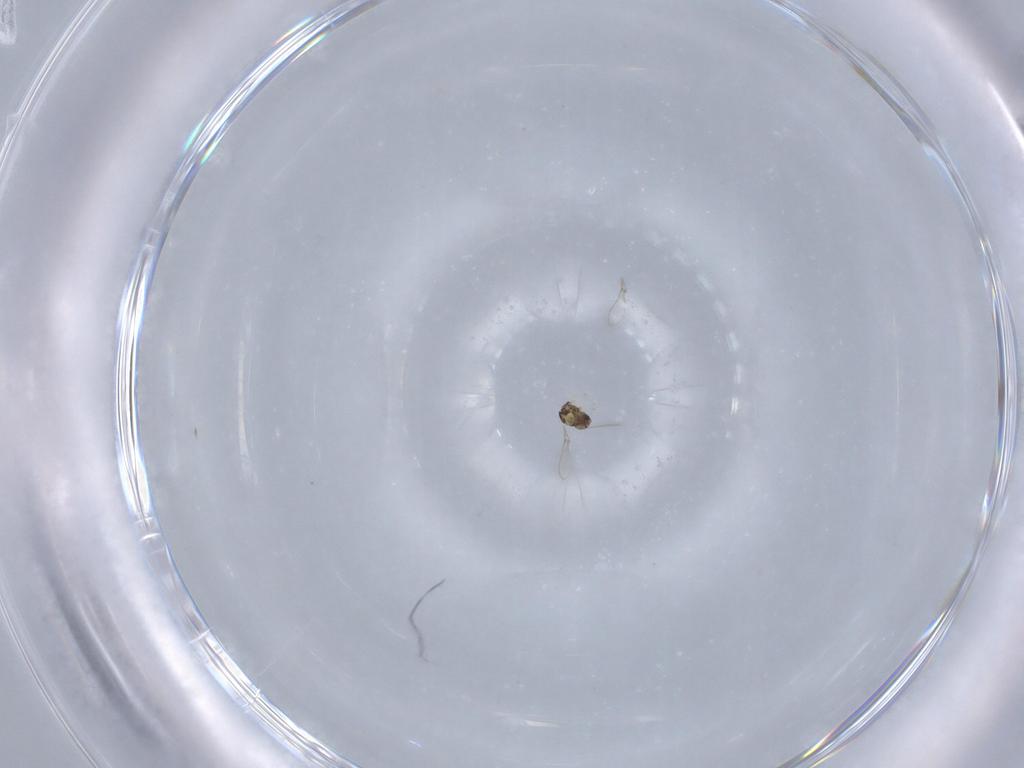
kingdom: Animalia
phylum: Arthropoda
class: Insecta
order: Hymenoptera
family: Mymaridae
